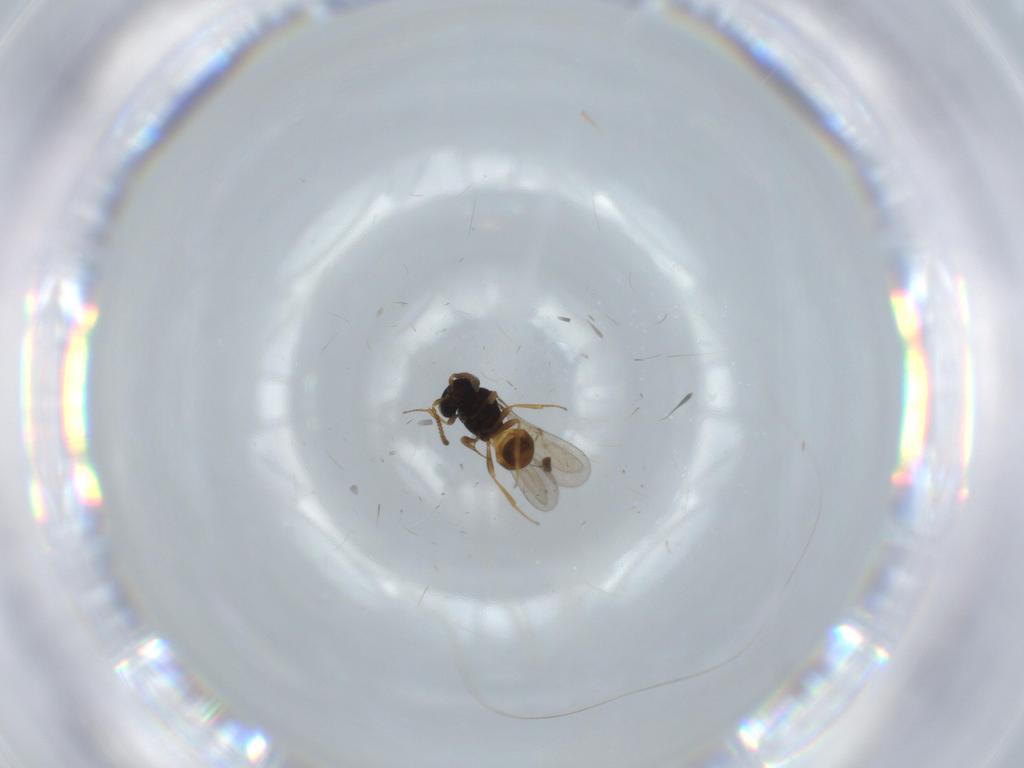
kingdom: Animalia
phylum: Arthropoda
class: Insecta
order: Hymenoptera
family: Scelionidae
